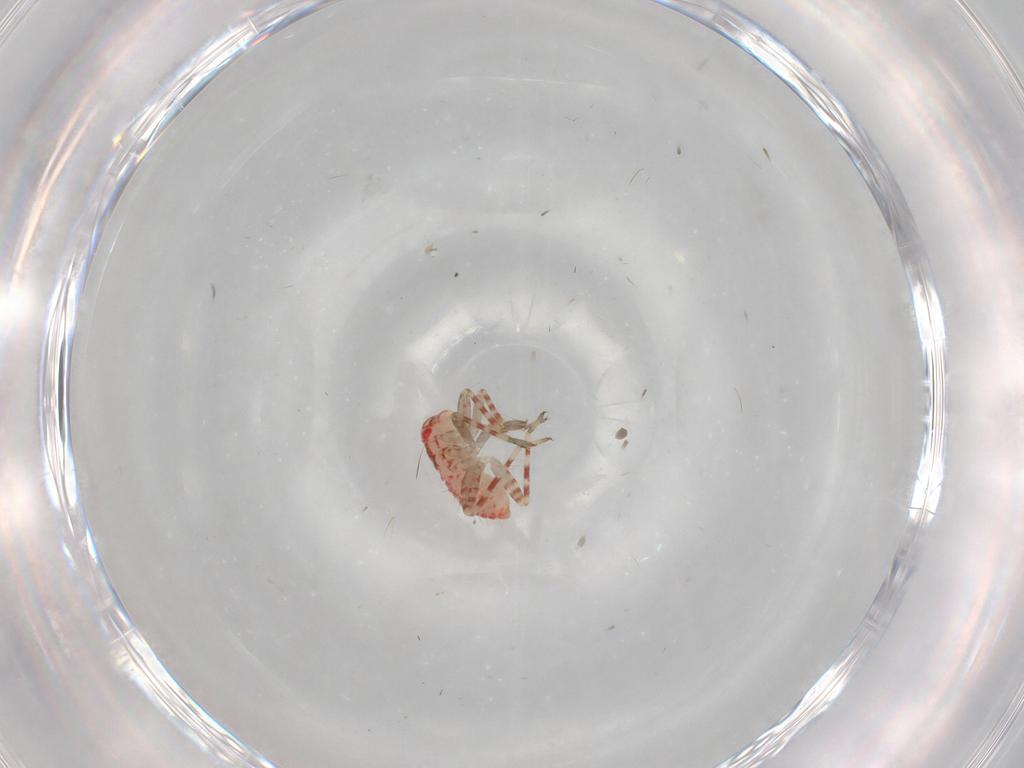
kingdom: Animalia
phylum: Arthropoda
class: Insecta
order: Hemiptera
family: Miridae
